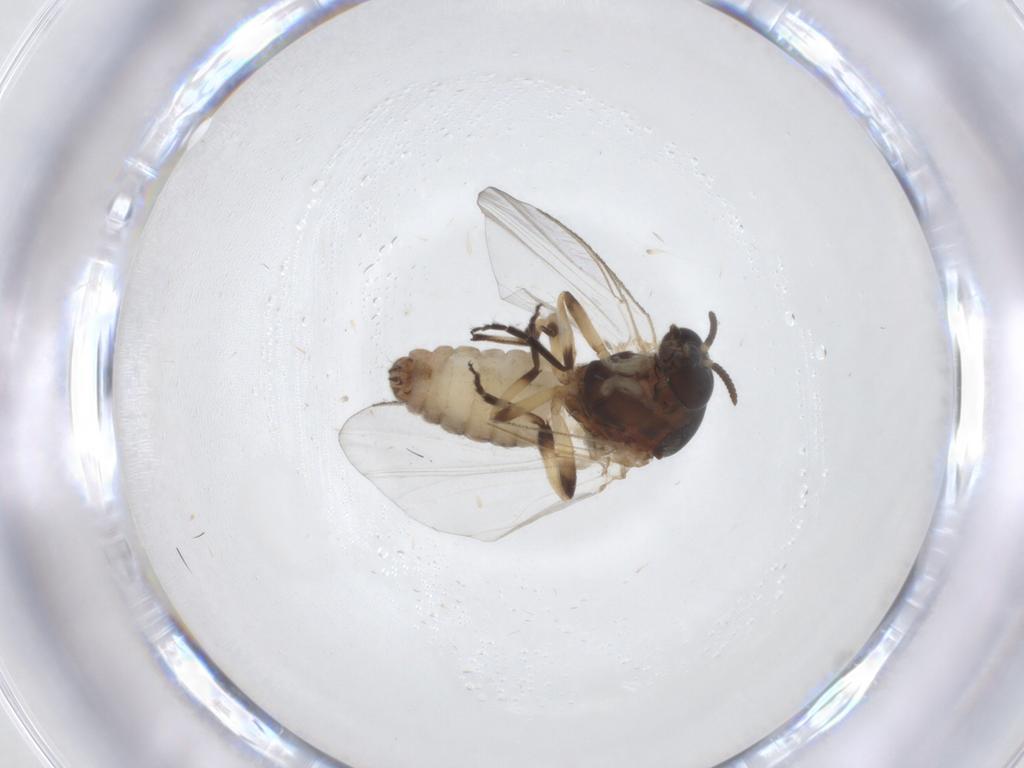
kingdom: Animalia
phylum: Arthropoda
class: Insecta
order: Diptera
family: Simuliidae
